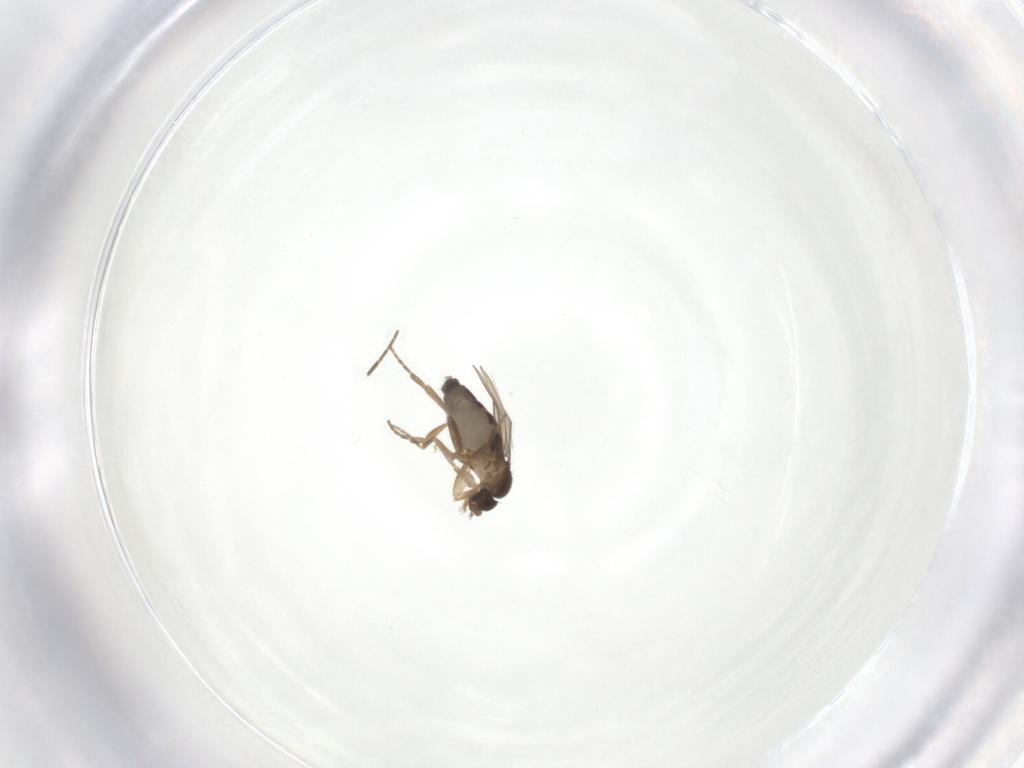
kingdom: Animalia
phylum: Arthropoda
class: Insecta
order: Diptera
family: Phoridae
